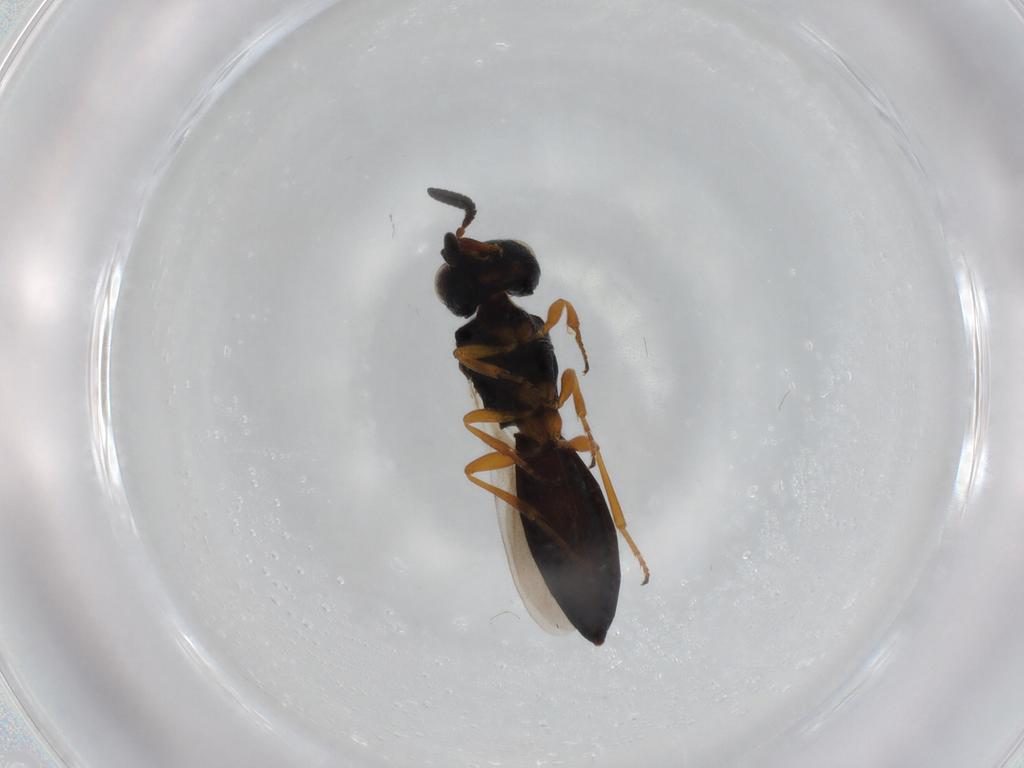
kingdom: Animalia
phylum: Arthropoda
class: Insecta
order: Hymenoptera
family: Scelionidae
